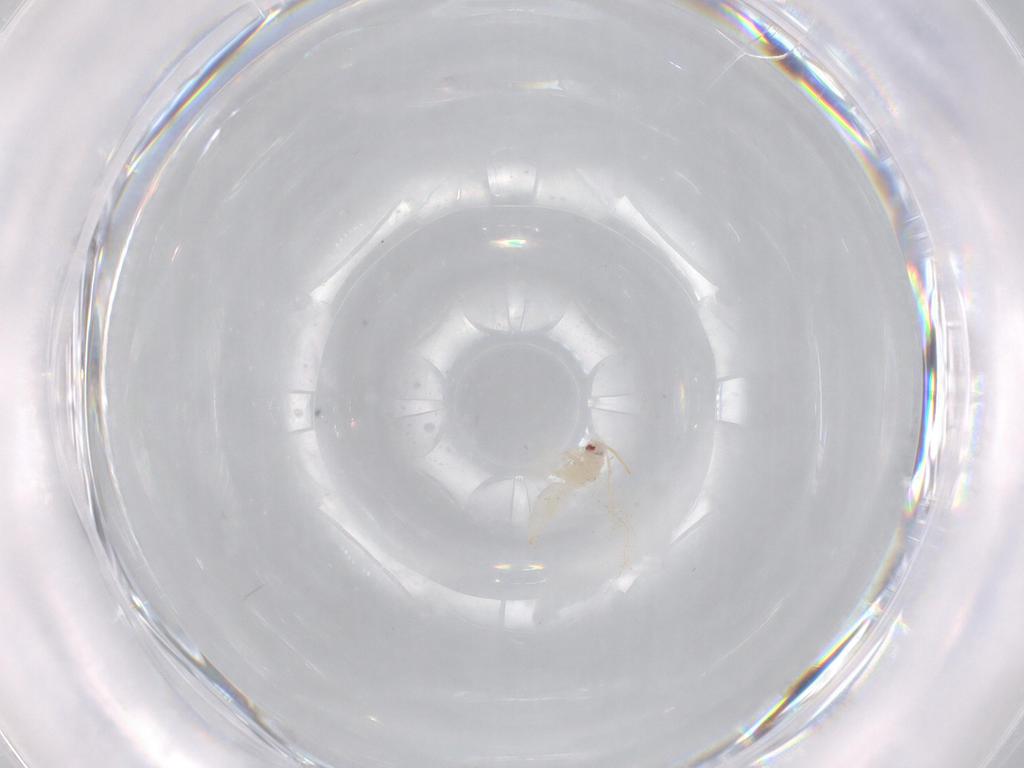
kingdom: Animalia
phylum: Arthropoda
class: Insecta
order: Hemiptera
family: Aleyrodidae
